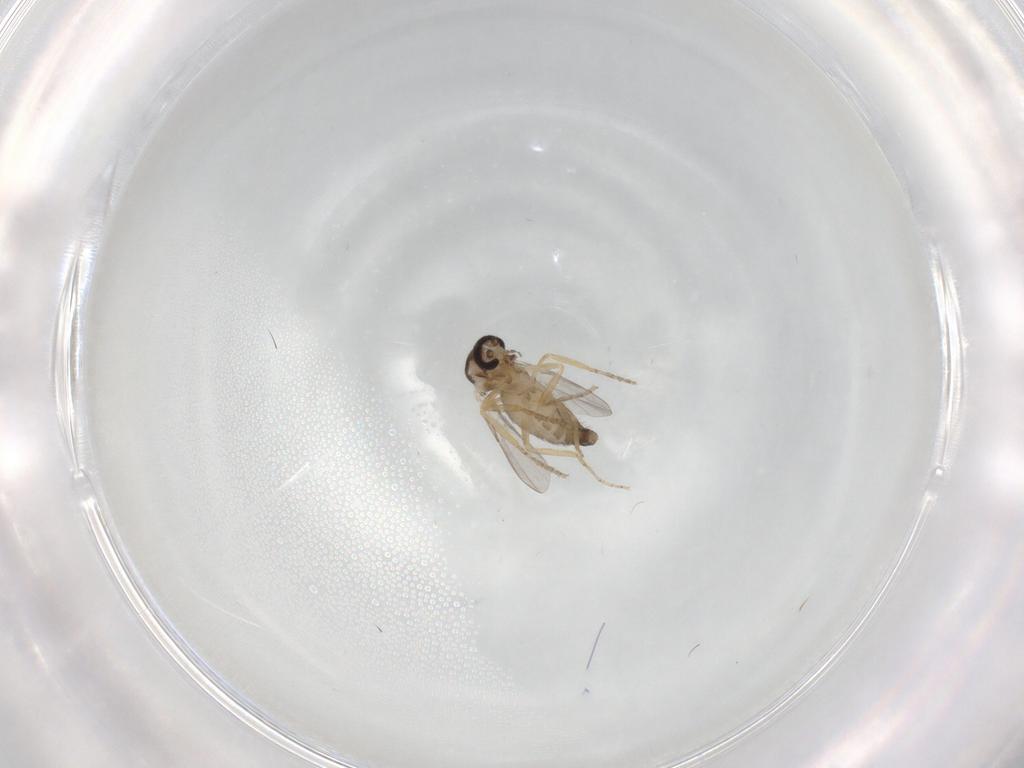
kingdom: Animalia
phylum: Arthropoda
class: Insecta
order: Diptera
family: Ceratopogonidae
